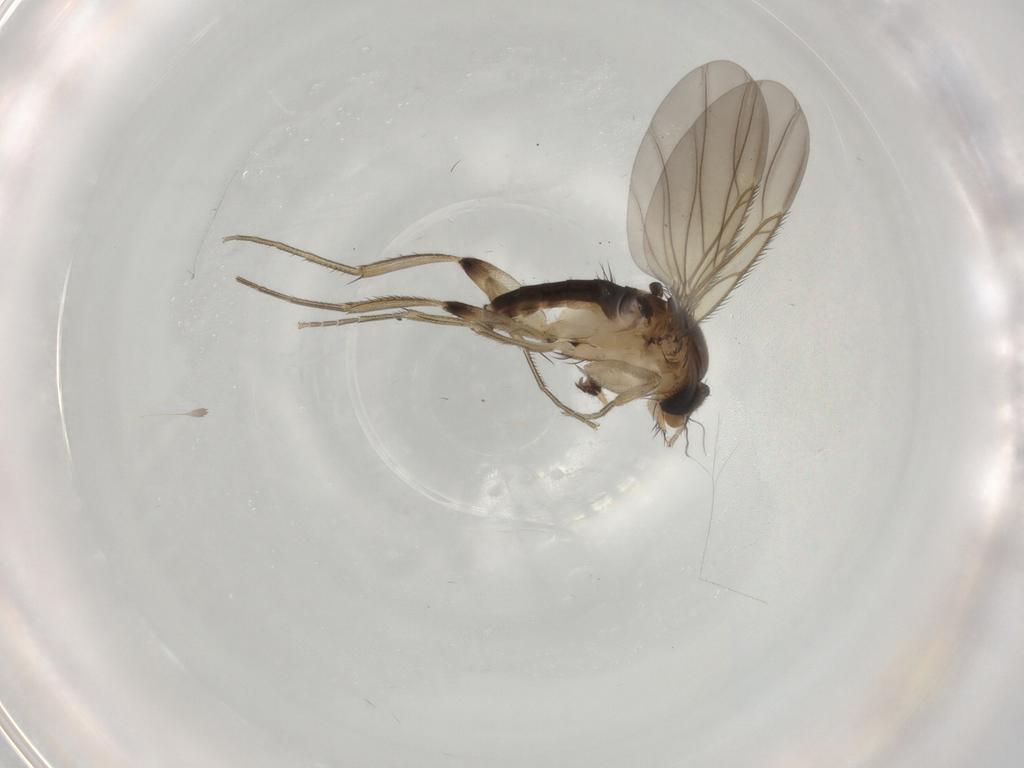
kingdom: Animalia
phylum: Arthropoda
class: Insecta
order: Diptera
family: Phoridae
